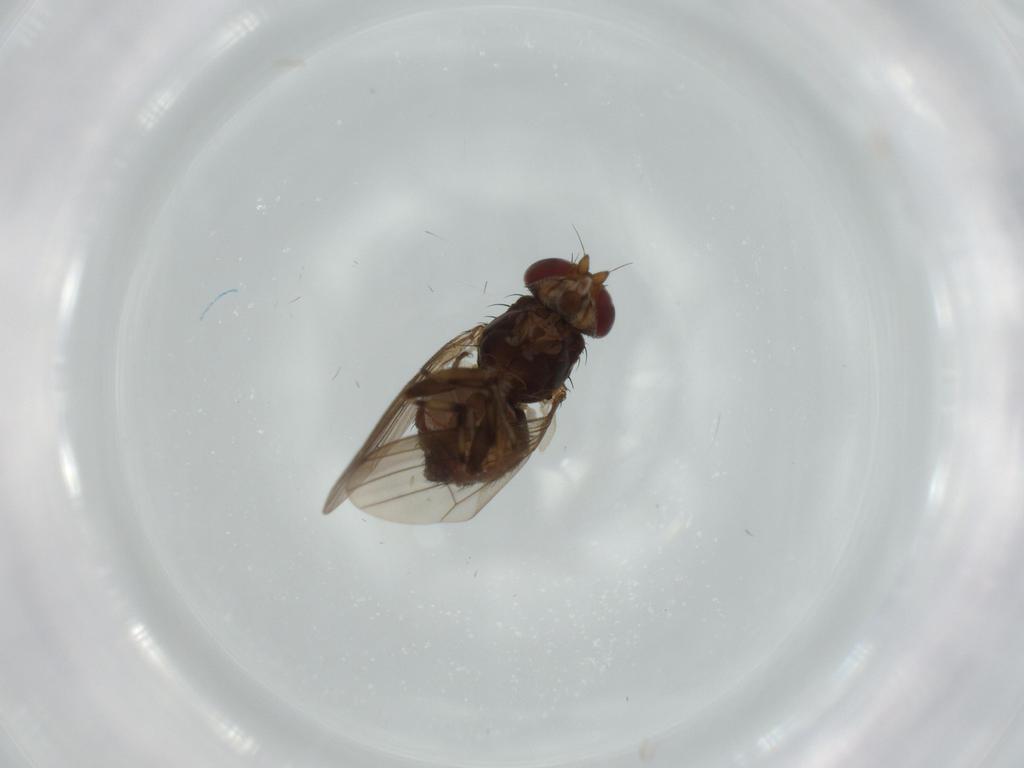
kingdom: Animalia
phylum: Arthropoda
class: Insecta
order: Diptera
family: Heleomyzidae
